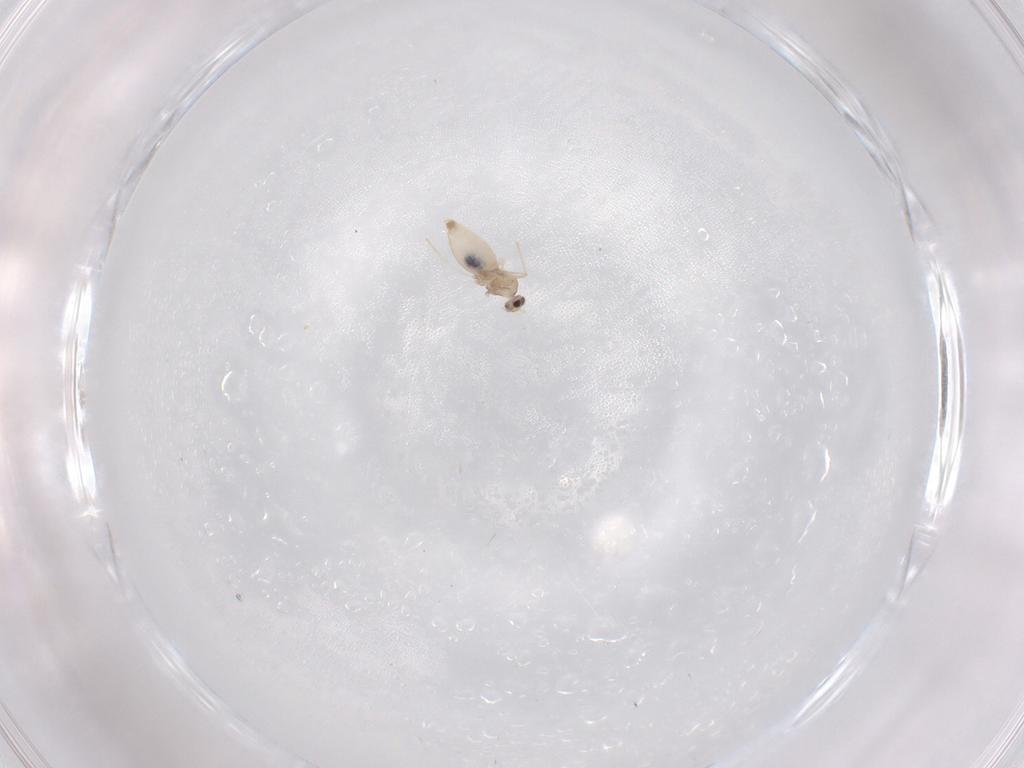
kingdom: Animalia
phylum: Arthropoda
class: Insecta
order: Diptera
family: Cecidomyiidae
